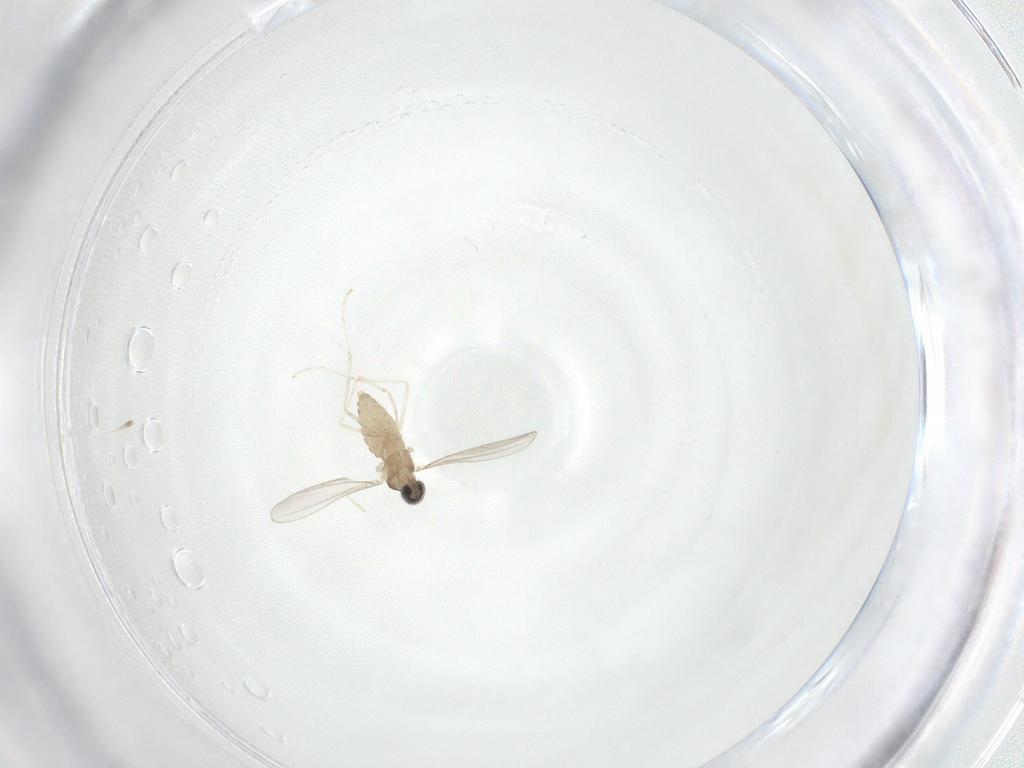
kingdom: Animalia
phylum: Arthropoda
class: Insecta
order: Diptera
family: Cecidomyiidae
